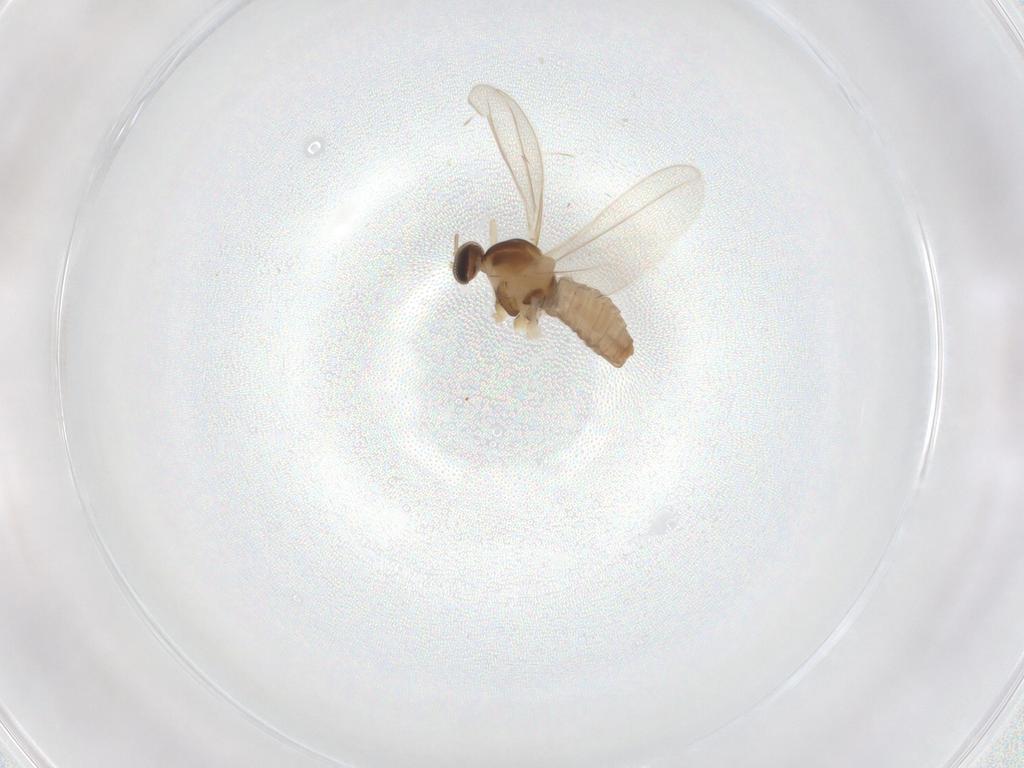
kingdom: Animalia
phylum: Arthropoda
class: Insecta
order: Diptera
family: Cecidomyiidae
